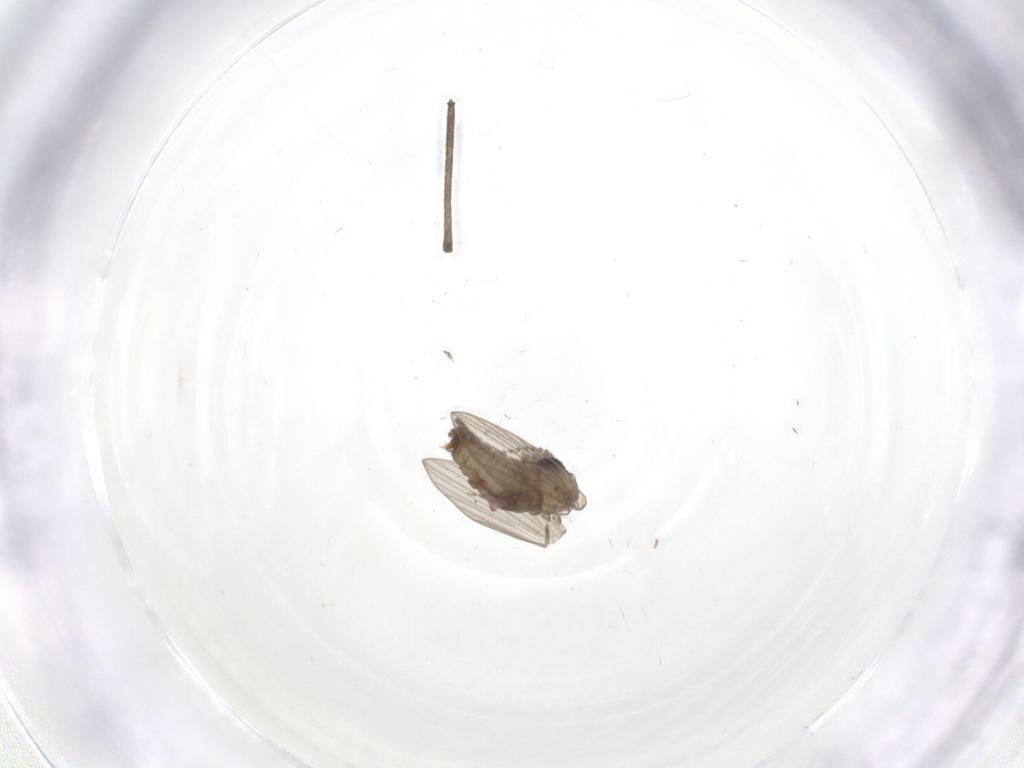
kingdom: Animalia
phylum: Arthropoda
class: Insecta
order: Diptera
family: Psychodidae
